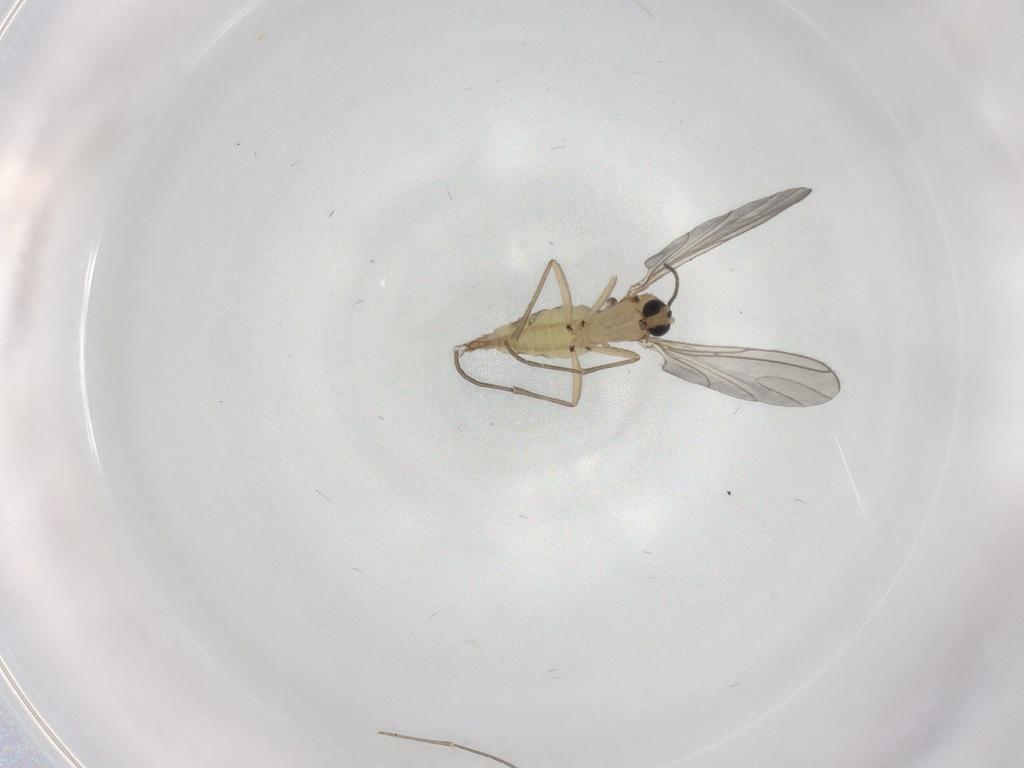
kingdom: Animalia
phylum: Arthropoda
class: Insecta
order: Diptera
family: Sciaridae
